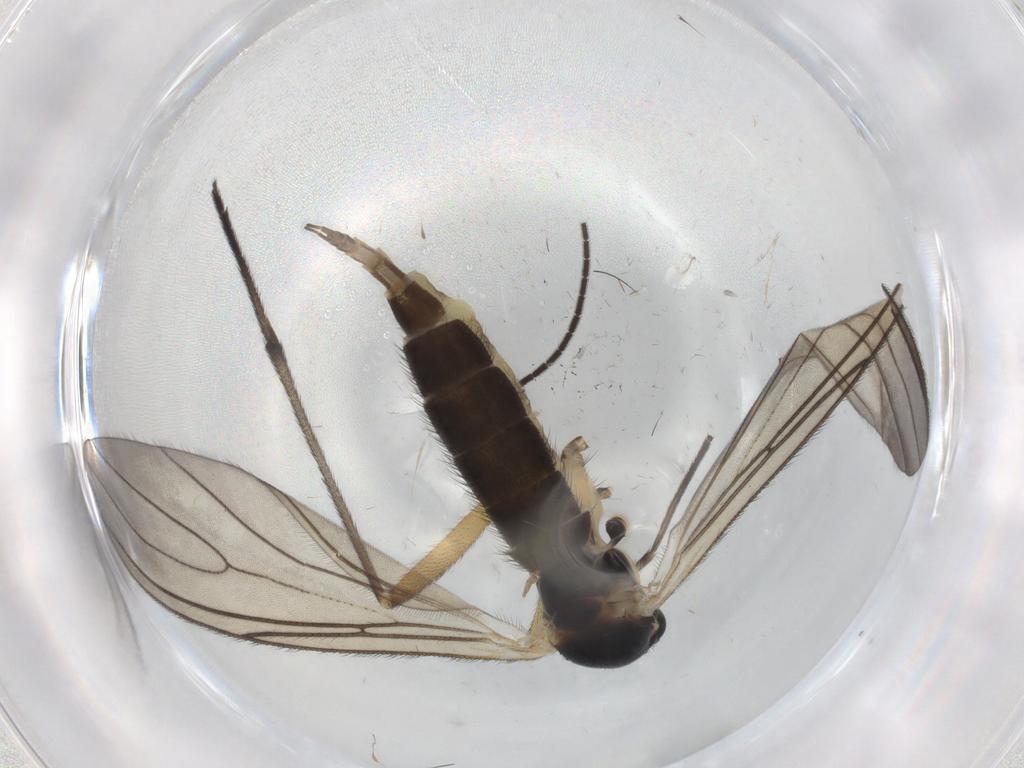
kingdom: Animalia
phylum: Arthropoda
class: Insecta
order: Diptera
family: Sciaridae
